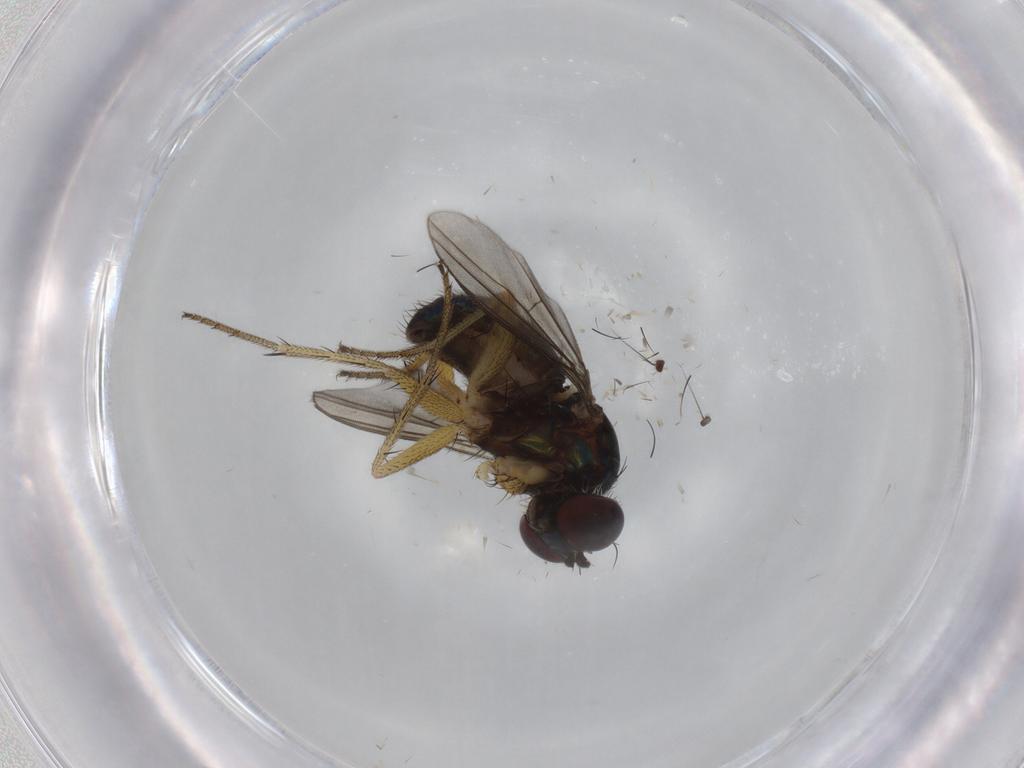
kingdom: Animalia
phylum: Arthropoda
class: Insecta
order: Diptera
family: Dolichopodidae
